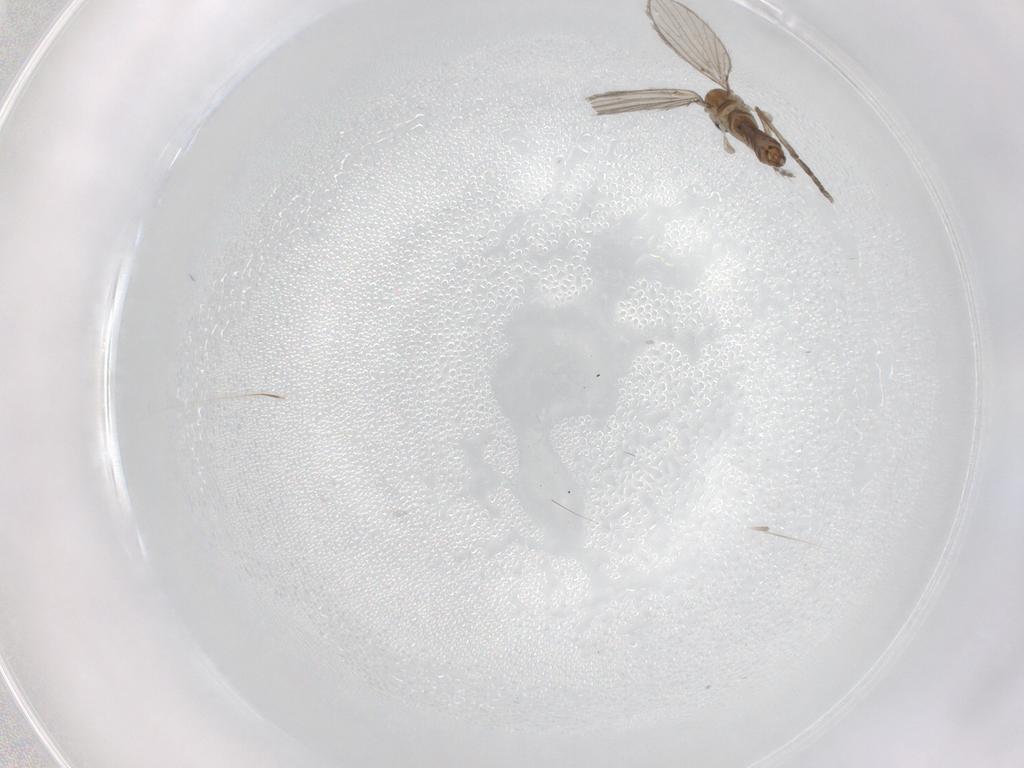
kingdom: Animalia
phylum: Arthropoda
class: Insecta
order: Diptera
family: Psychodidae
